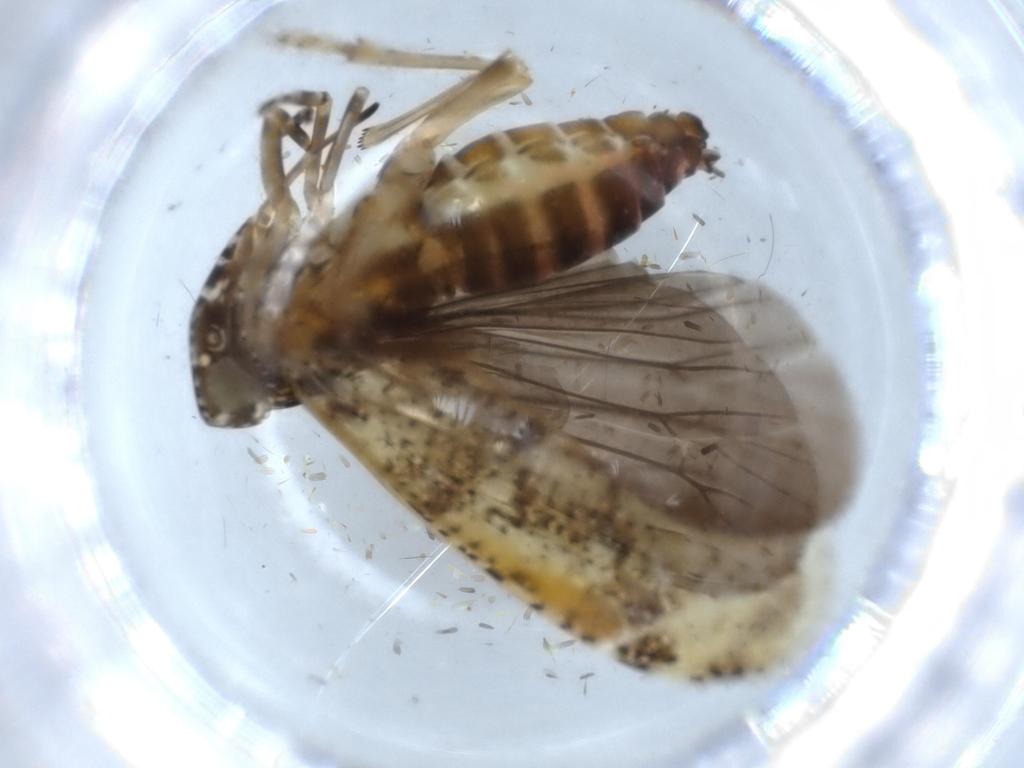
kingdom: Animalia
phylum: Arthropoda
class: Insecta
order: Hemiptera
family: Achilidae
